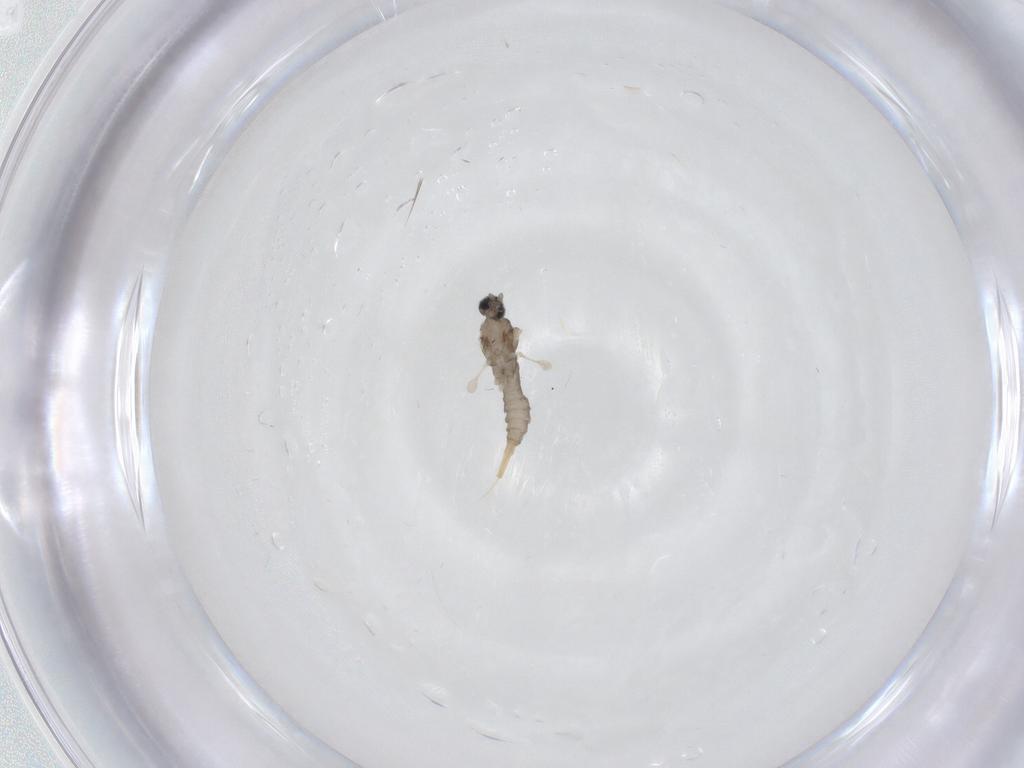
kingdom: Animalia
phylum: Arthropoda
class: Insecta
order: Diptera
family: Cecidomyiidae
